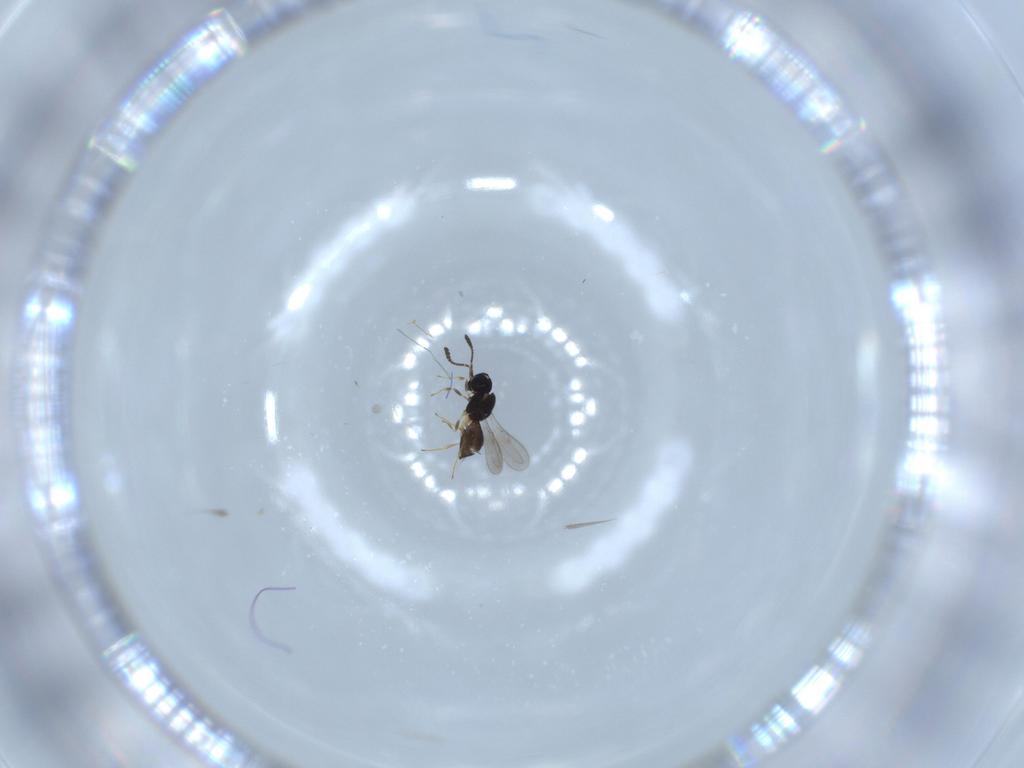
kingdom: Animalia
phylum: Arthropoda
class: Insecta
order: Hymenoptera
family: Scelionidae
